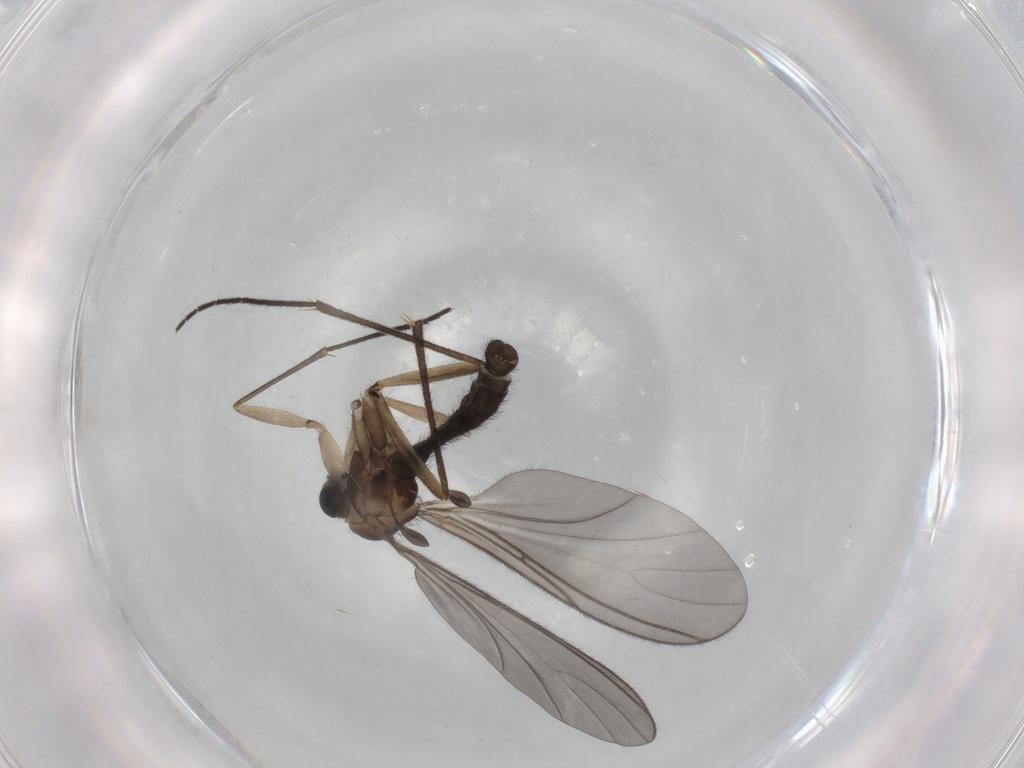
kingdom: Animalia
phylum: Arthropoda
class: Insecta
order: Diptera
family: Sciaridae
